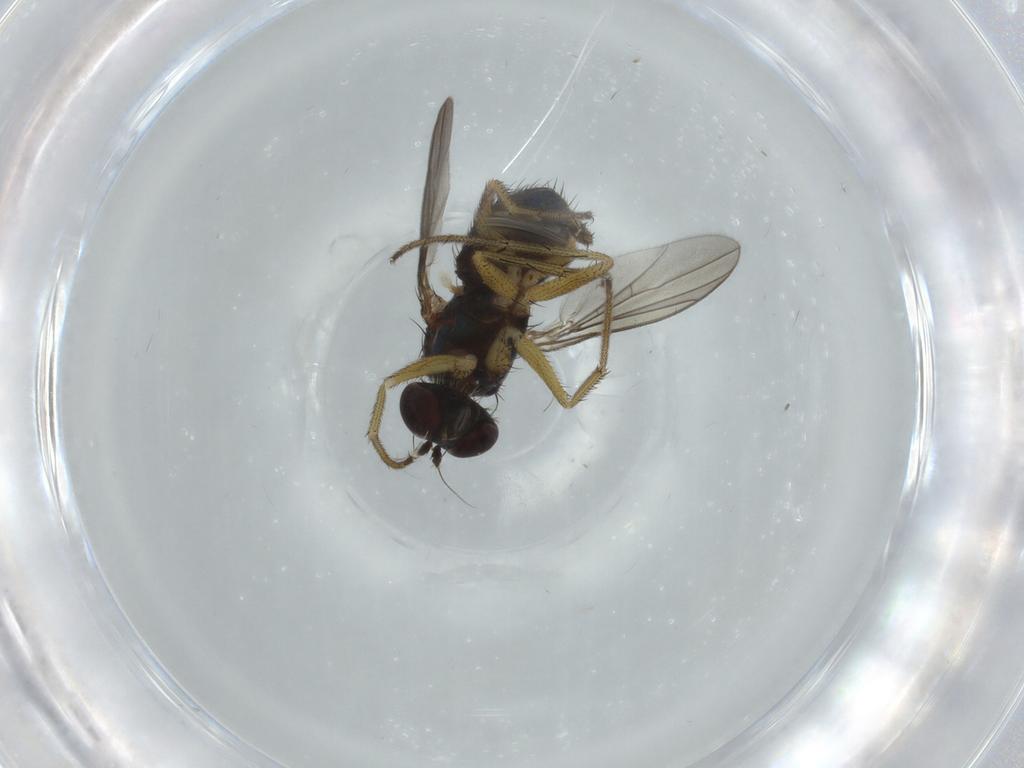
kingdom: Animalia
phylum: Arthropoda
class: Insecta
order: Diptera
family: Dolichopodidae
